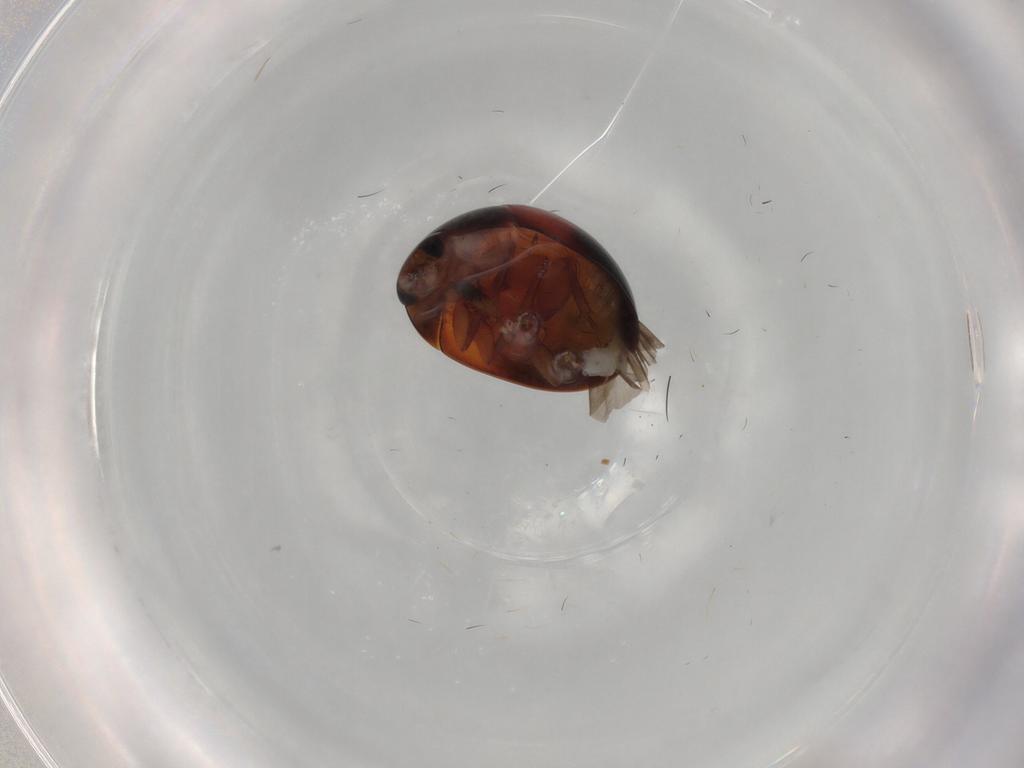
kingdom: Animalia
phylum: Arthropoda
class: Insecta
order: Coleoptera
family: Phalacridae
